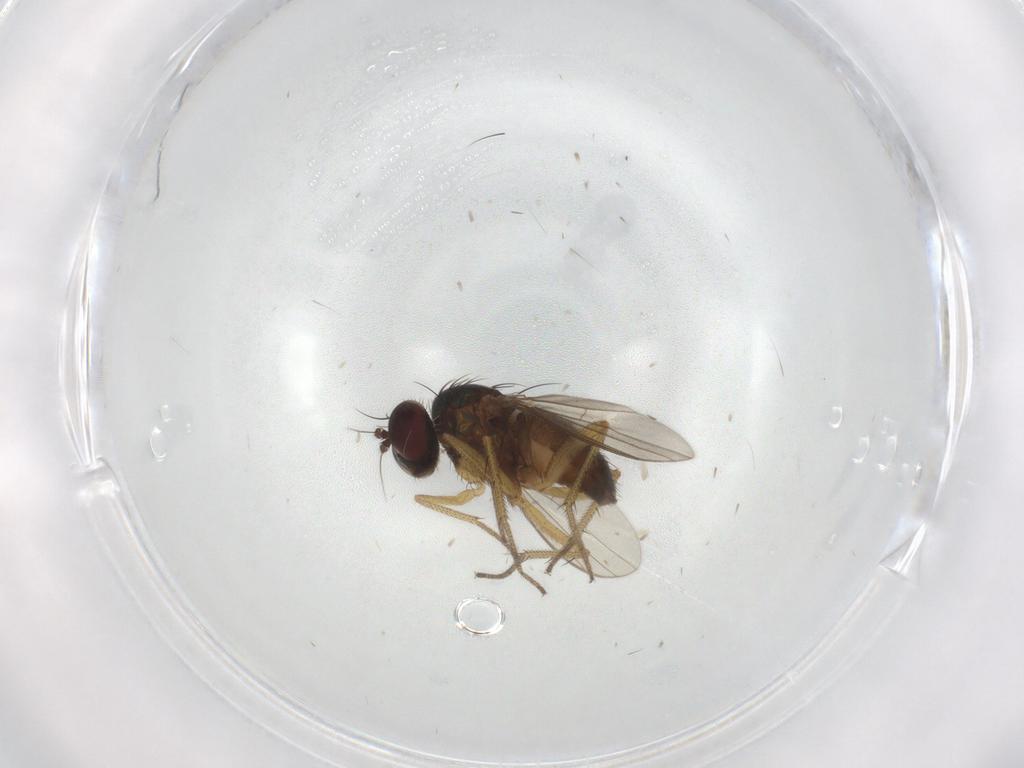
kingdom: Animalia
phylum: Arthropoda
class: Insecta
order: Diptera
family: Dolichopodidae
